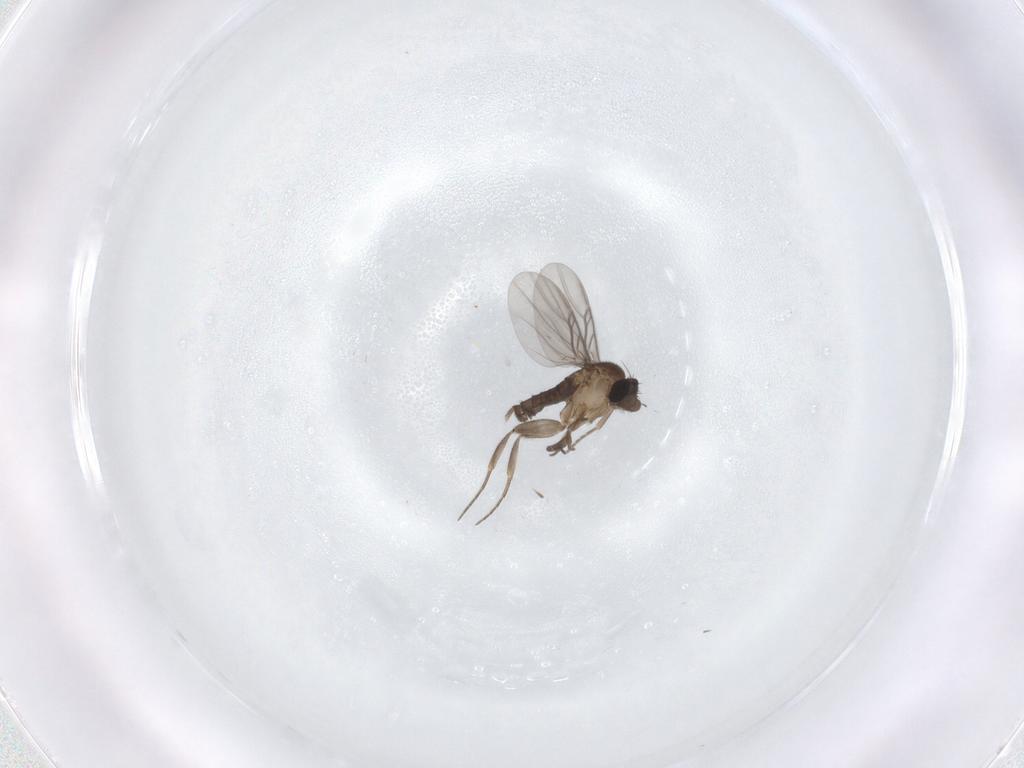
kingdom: Animalia
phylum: Arthropoda
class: Insecta
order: Diptera
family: Sciaridae
